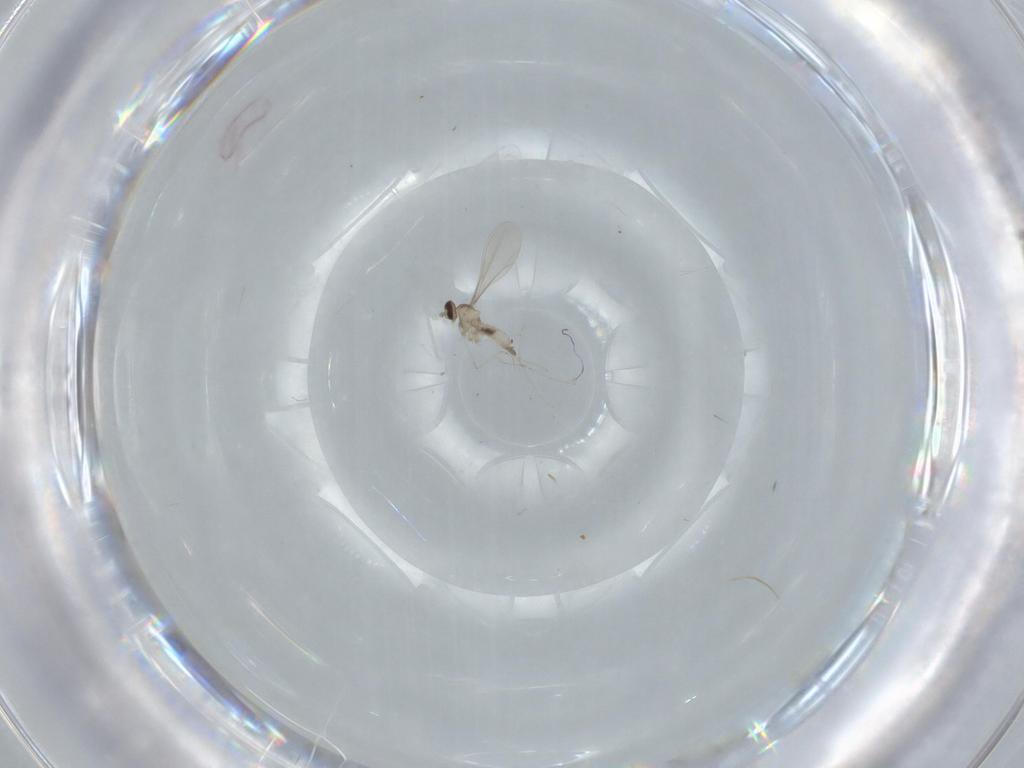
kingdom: Animalia
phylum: Arthropoda
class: Insecta
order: Diptera
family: Cecidomyiidae
